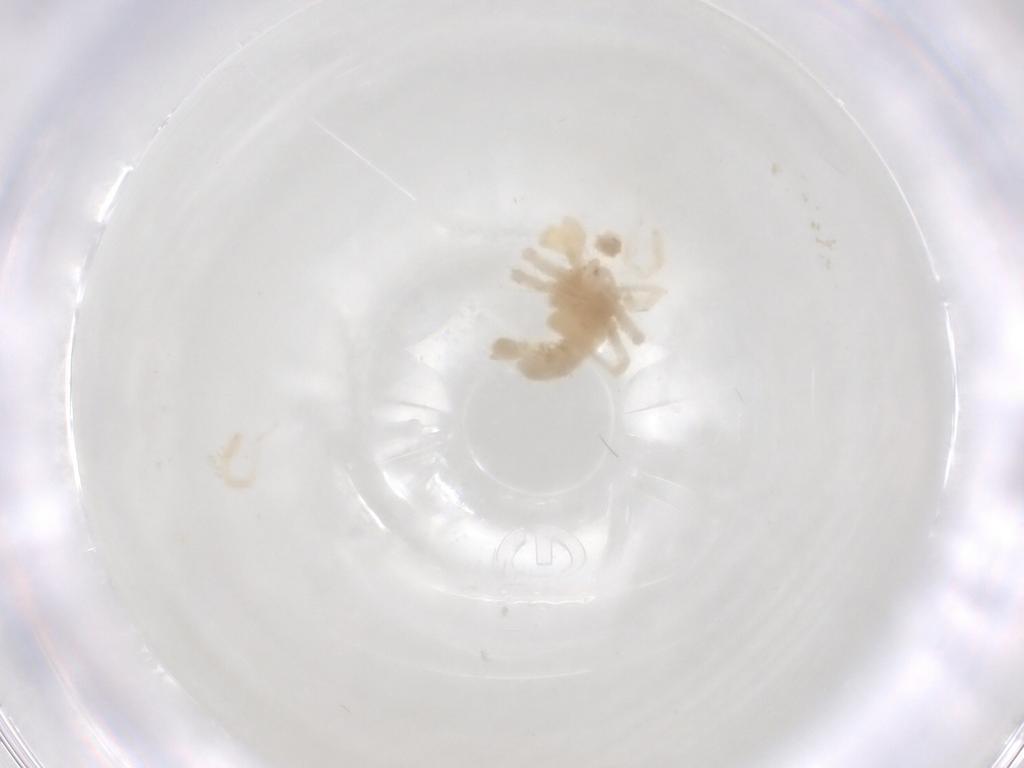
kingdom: Animalia
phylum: Arthropoda
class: Arachnida
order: Trombidiformes
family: Anystidae
